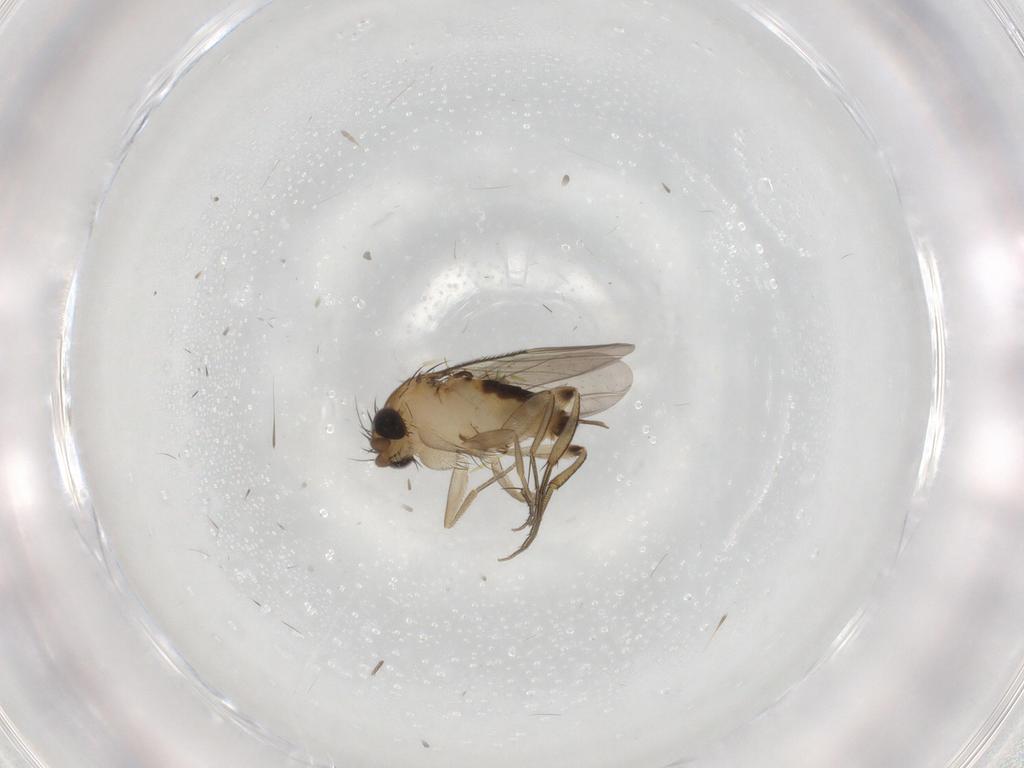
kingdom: Animalia
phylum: Arthropoda
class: Insecta
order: Diptera
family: Phoridae
